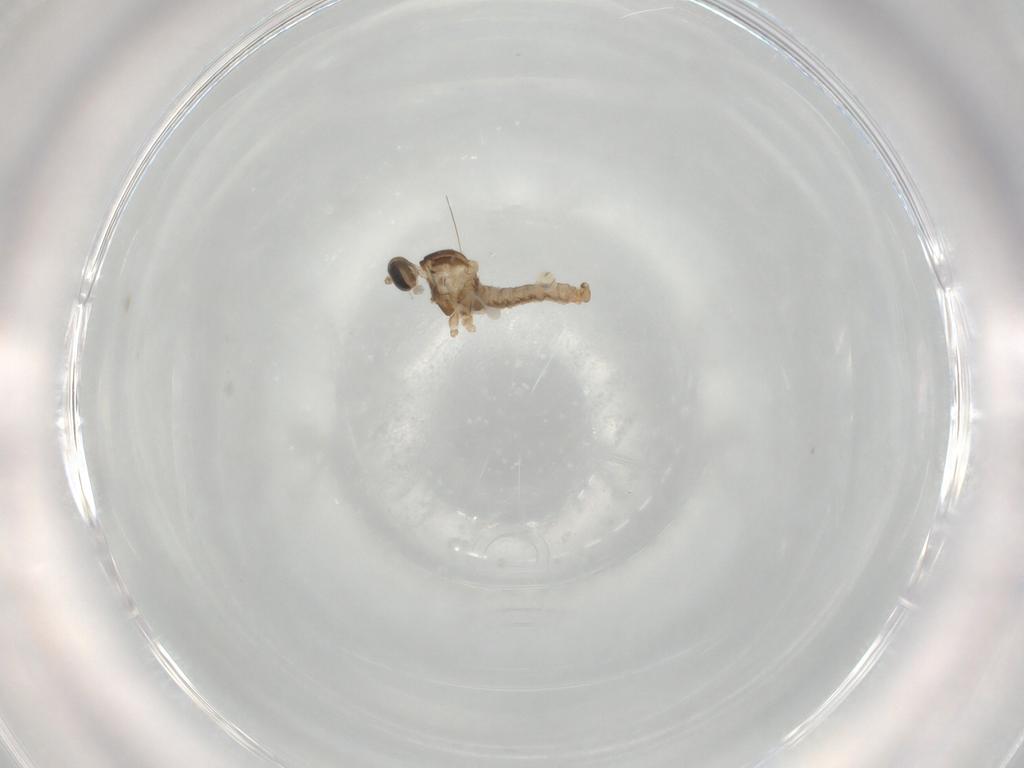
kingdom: Animalia
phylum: Arthropoda
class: Insecta
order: Diptera
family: Cecidomyiidae
